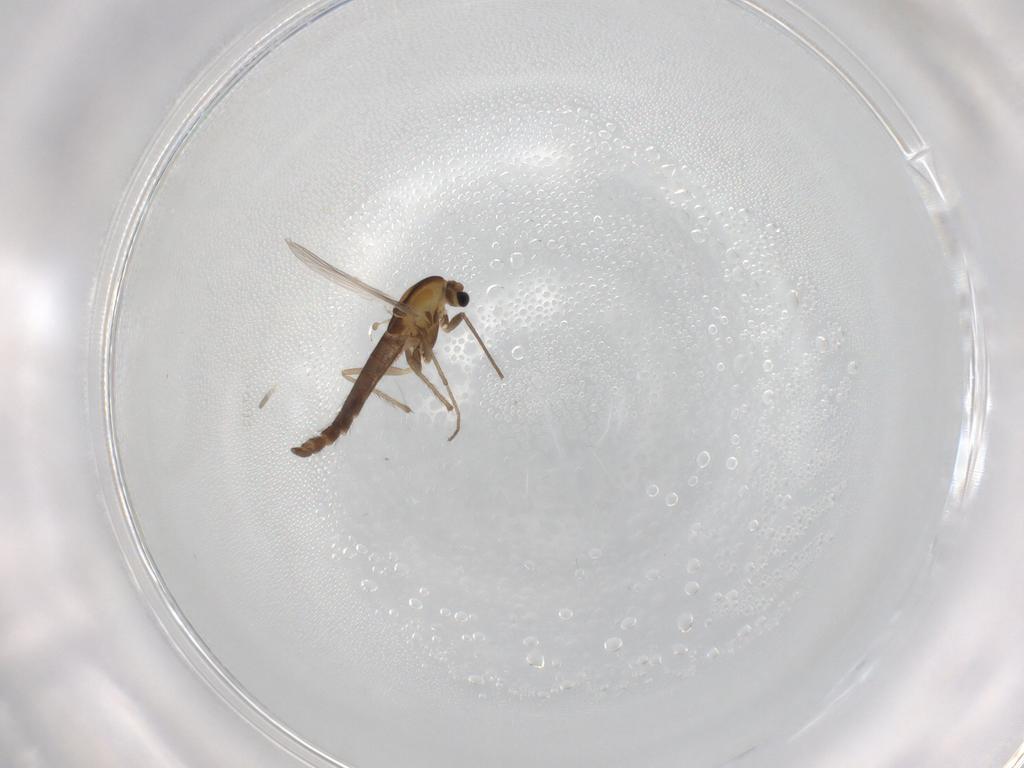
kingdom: Animalia
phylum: Arthropoda
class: Insecta
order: Diptera
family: Chironomidae
